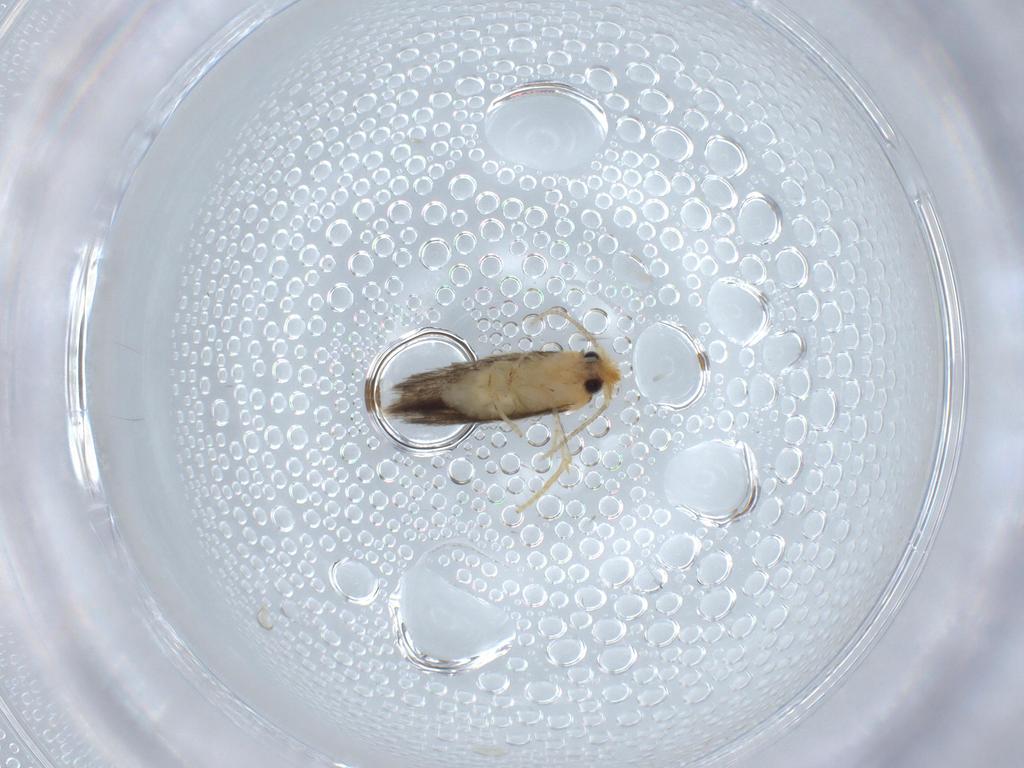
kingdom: Animalia
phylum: Arthropoda
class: Insecta
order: Lepidoptera
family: Nepticulidae
